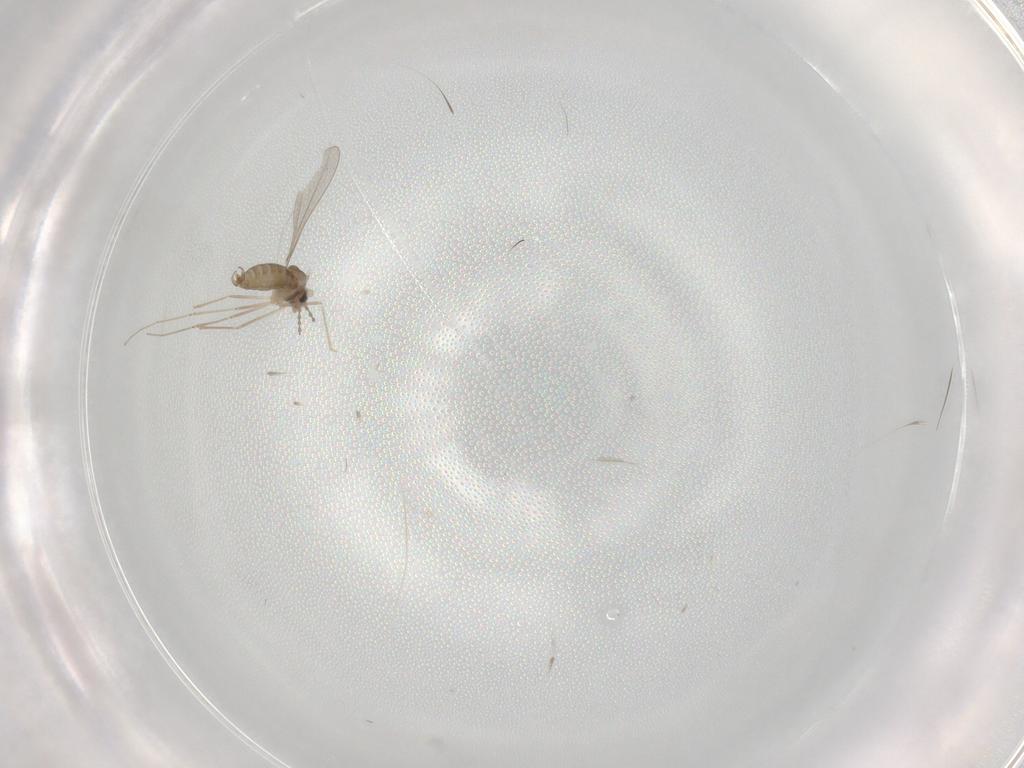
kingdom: Animalia
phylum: Arthropoda
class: Insecta
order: Diptera
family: Cecidomyiidae
